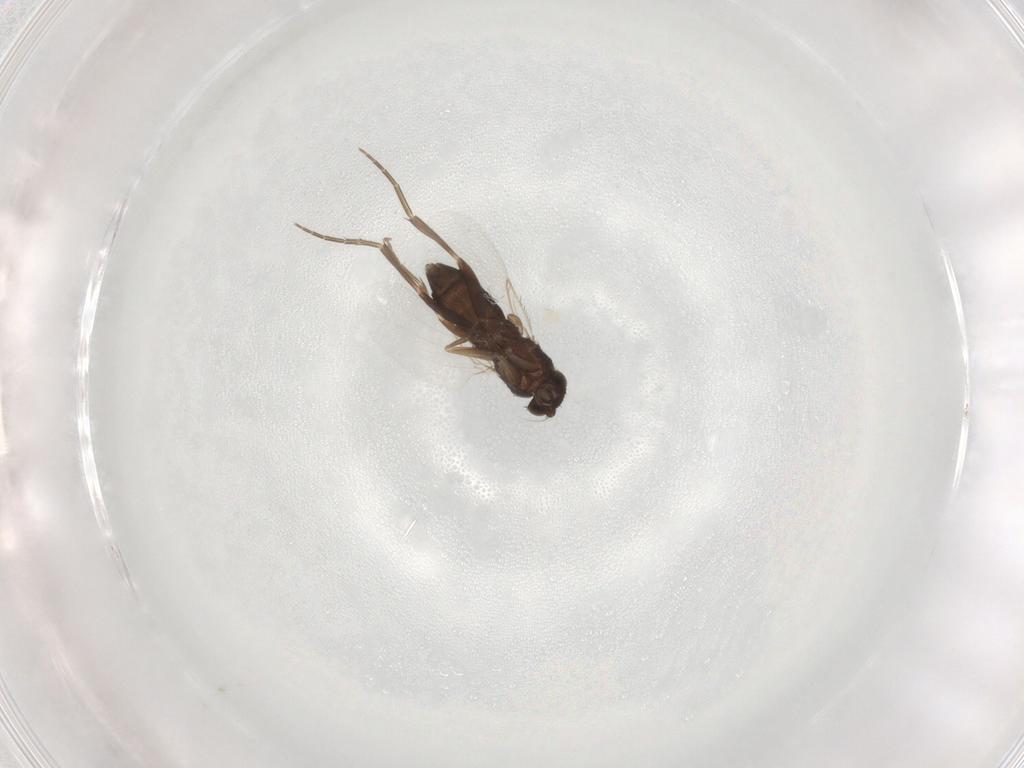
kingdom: Animalia
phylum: Arthropoda
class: Insecta
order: Diptera
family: Phoridae
